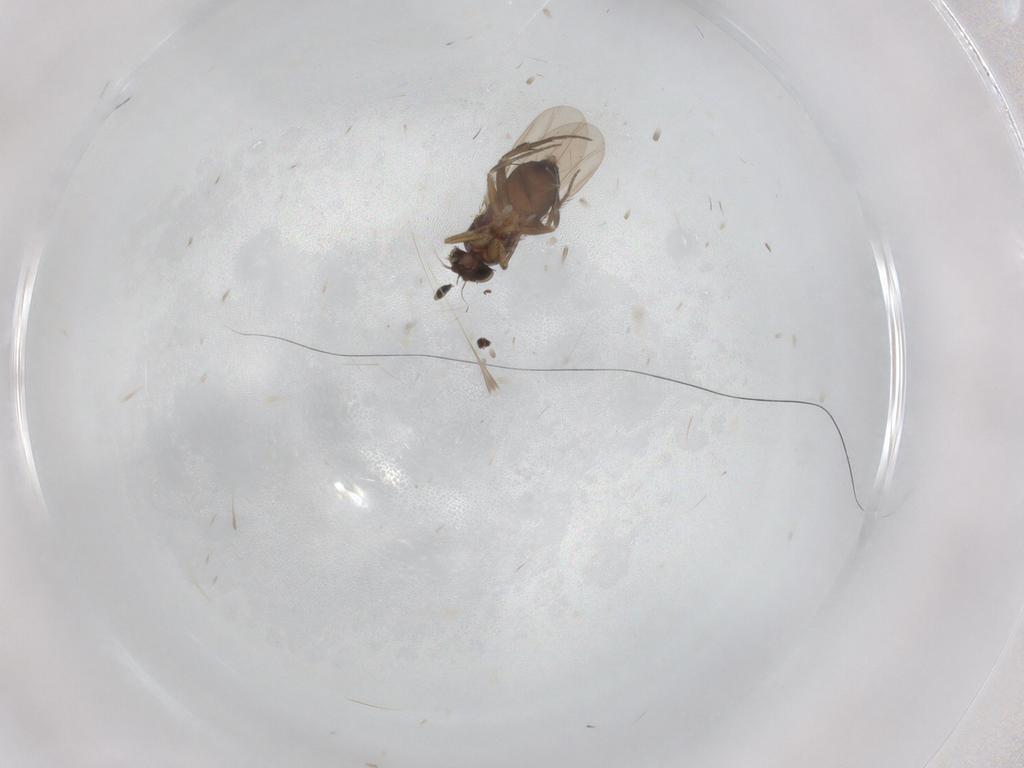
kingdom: Animalia
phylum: Arthropoda
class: Insecta
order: Diptera
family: Phoridae
